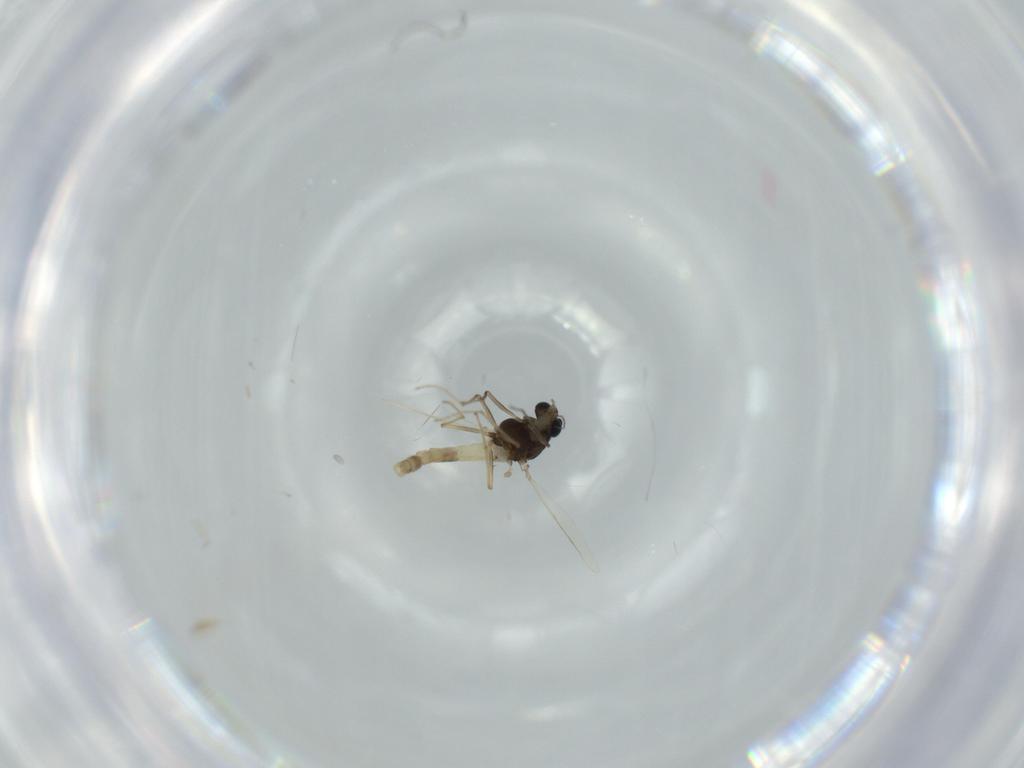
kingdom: Animalia
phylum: Arthropoda
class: Insecta
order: Diptera
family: Chironomidae
